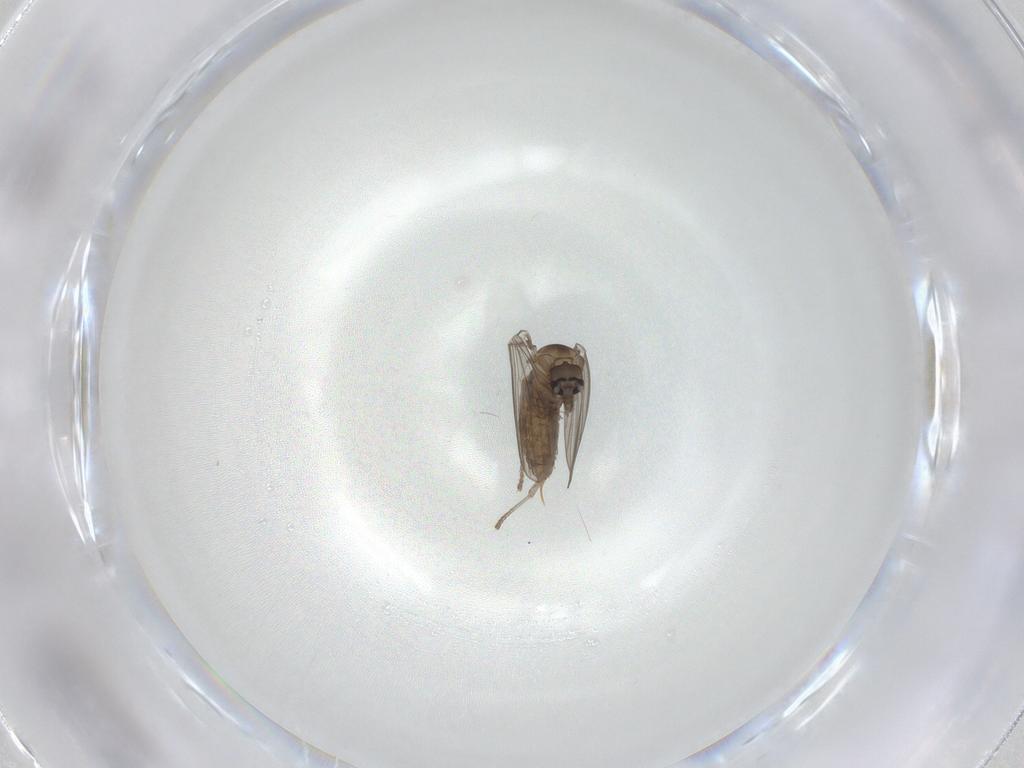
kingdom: Animalia
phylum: Arthropoda
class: Insecta
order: Diptera
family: Psychodidae
